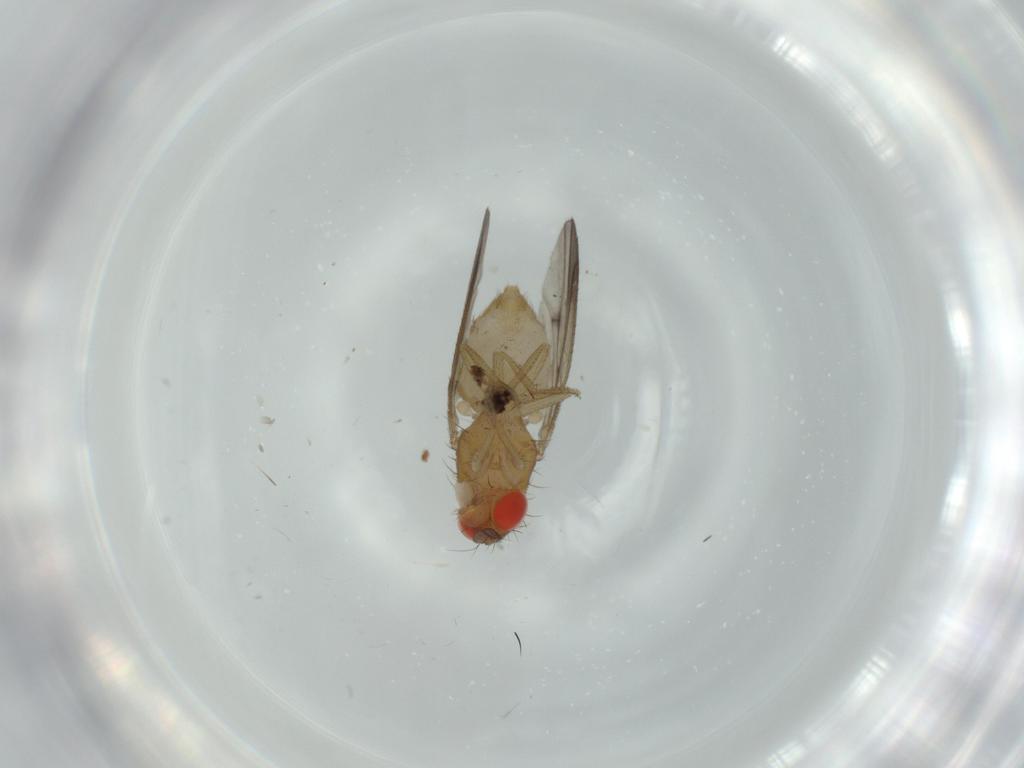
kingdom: Animalia
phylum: Arthropoda
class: Insecta
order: Diptera
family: Drosophilidae
